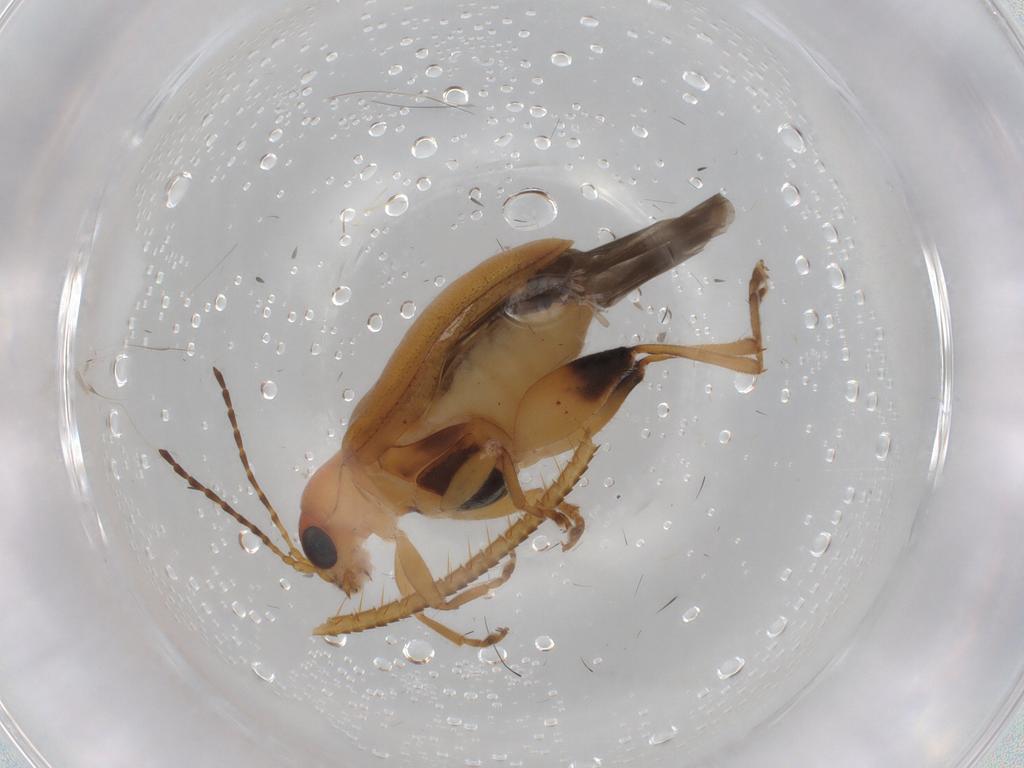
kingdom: Animalia
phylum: Arthropoda
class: Insecta
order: Coleoptera
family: Chrysomelidae
